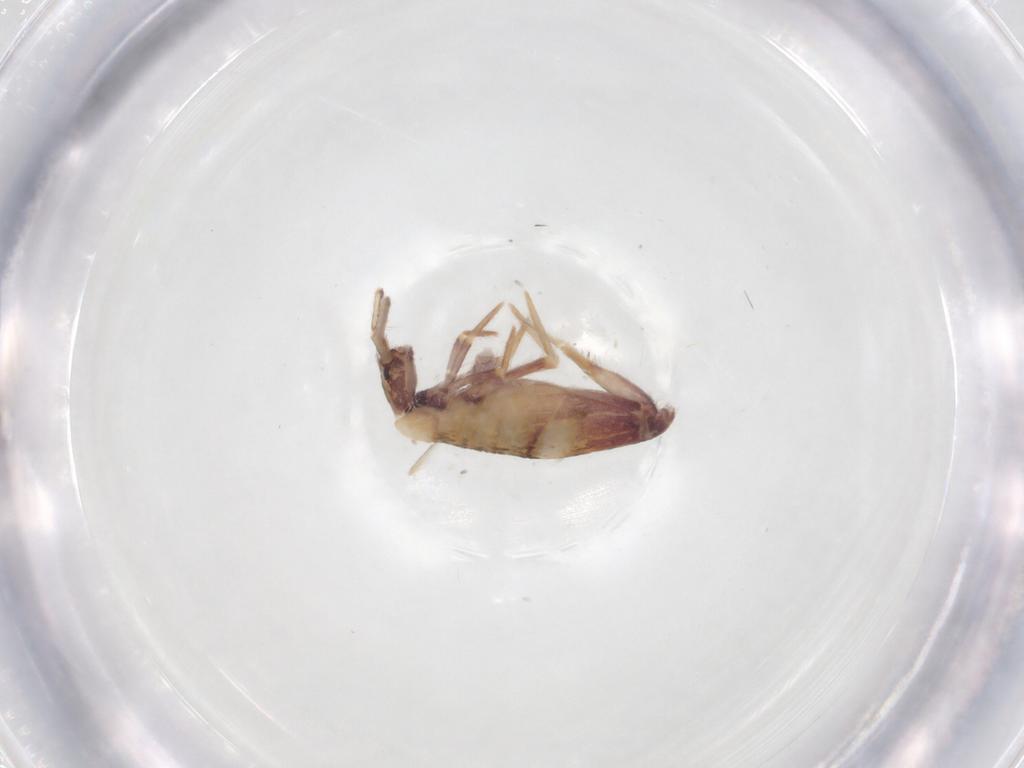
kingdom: Animalia
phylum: Arthropoda
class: Collembola
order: Entomobryomorpha
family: Entomobryidae
